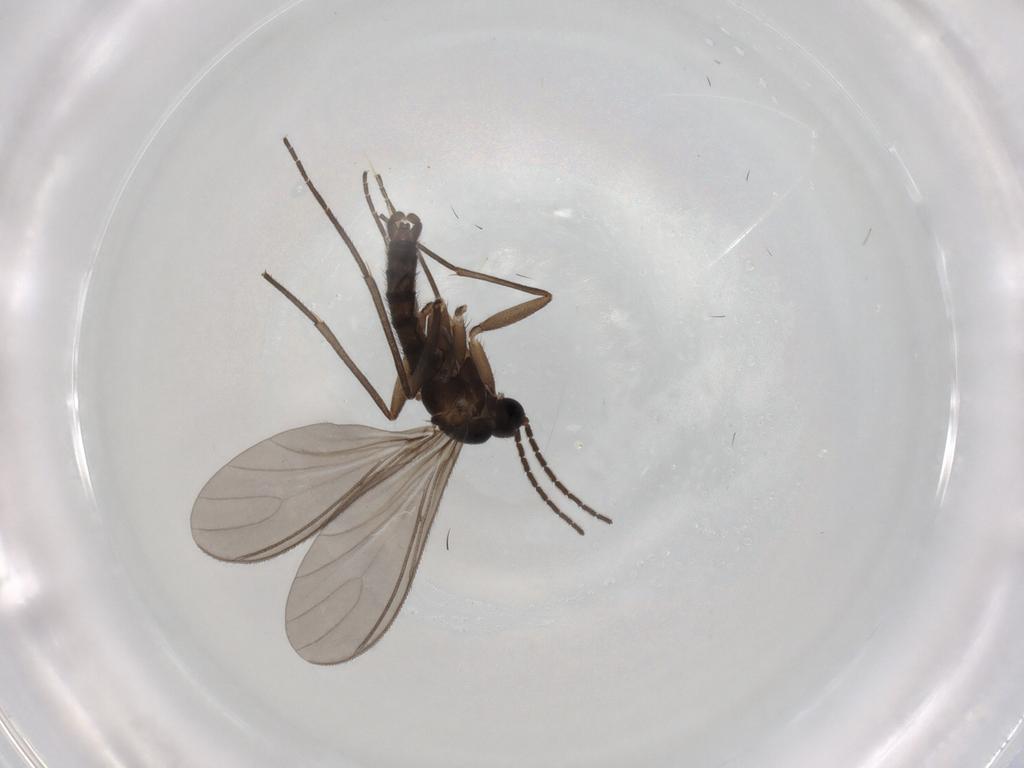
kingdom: Animalia
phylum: Arthropoda
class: Insecta
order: Diptera
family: Sciaridae
